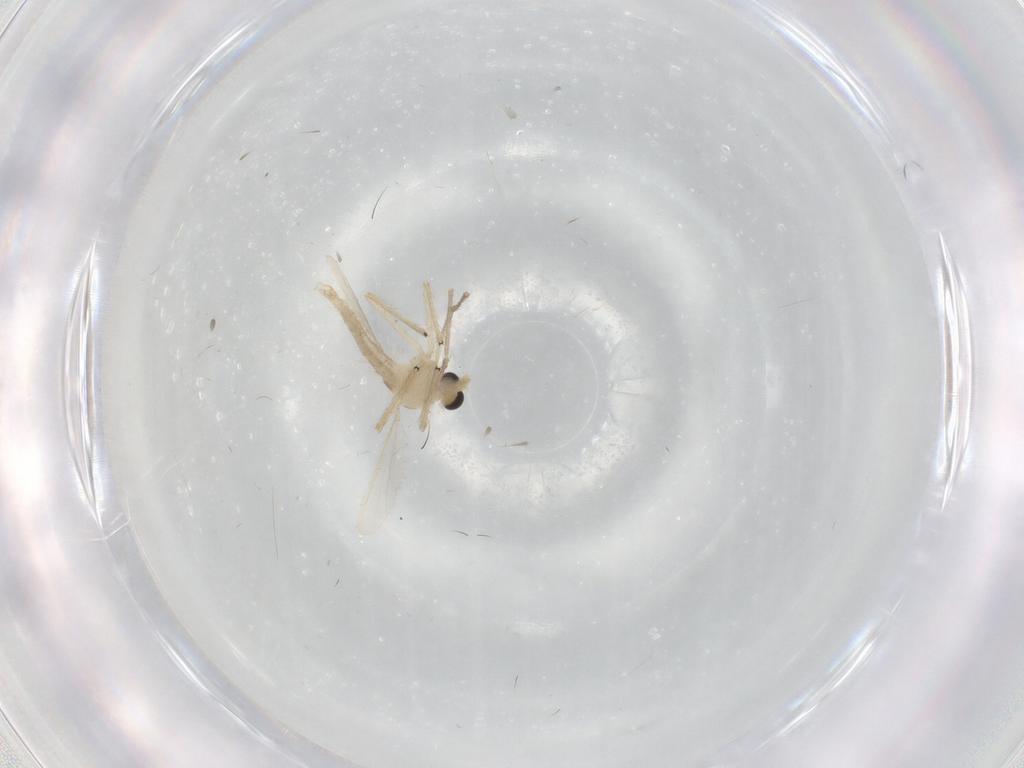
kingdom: Animalia
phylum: Arthropoda
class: Insecta
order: Diptera
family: Chironomidae
